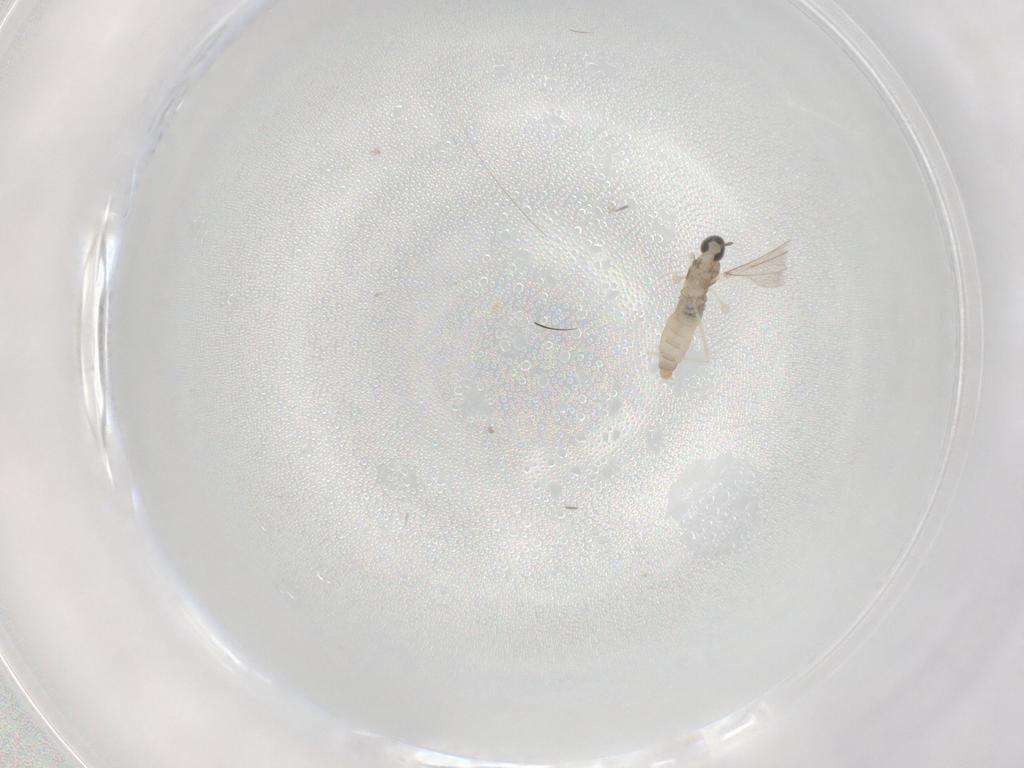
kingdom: Animalia
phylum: Arthropoda
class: Insecta
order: Diptera
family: Cecidomyiidae
